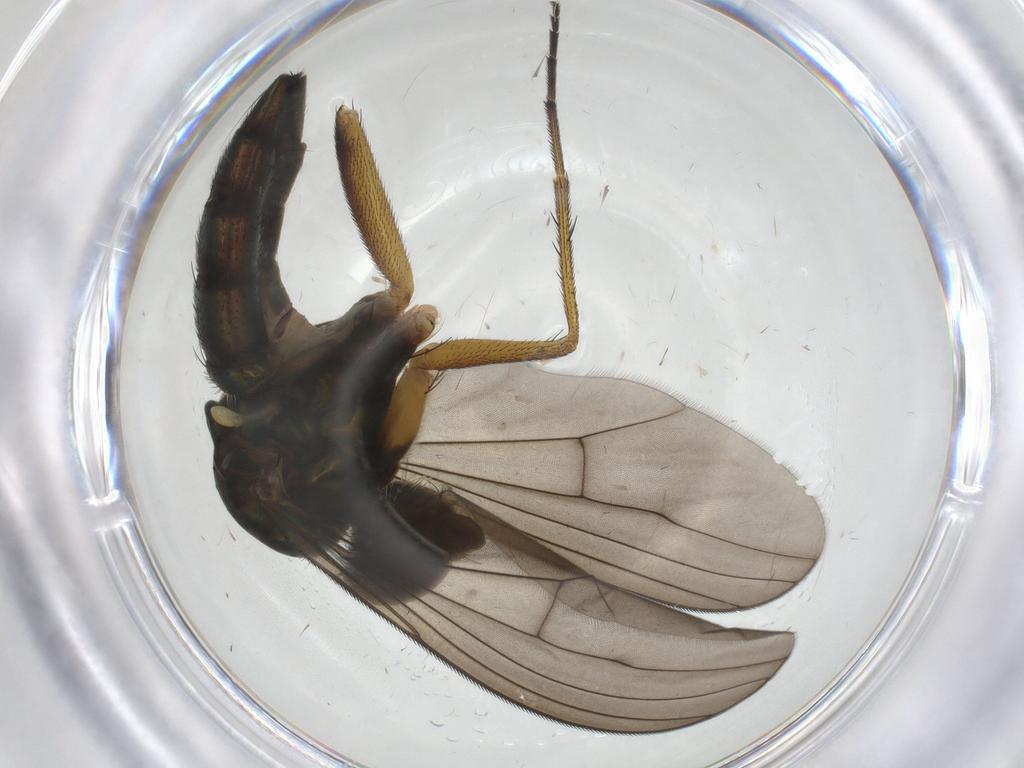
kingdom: Animalia
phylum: Arthropoda
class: Insecta
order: Diptera
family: Dolichopodidae
